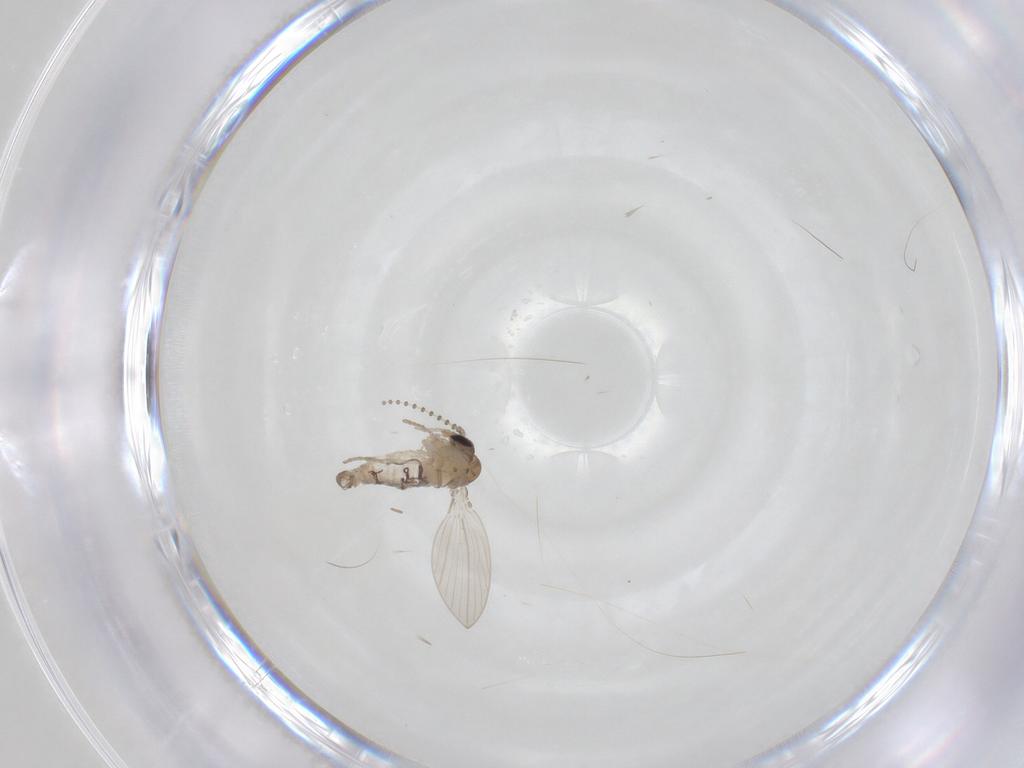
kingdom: Animalia
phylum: Arthropoda
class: Insecta
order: Diptera
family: Psychodidae
